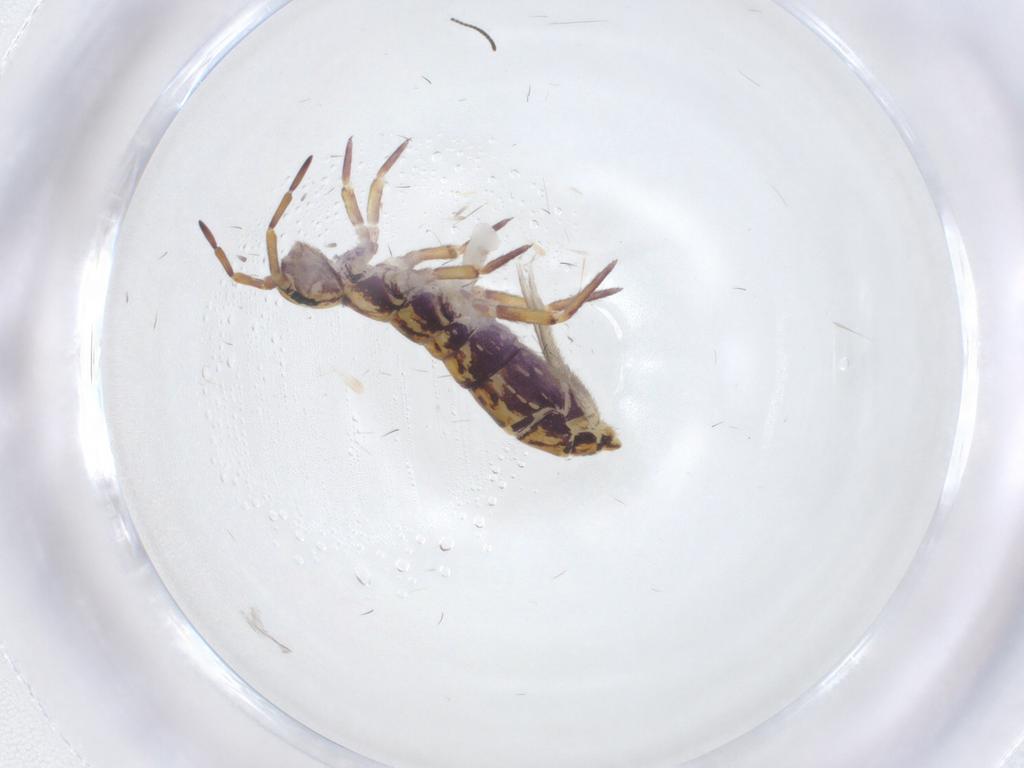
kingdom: Animalia
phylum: Arthropoda
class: Collembola
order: Entomobryomorpha
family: Isotomidae
